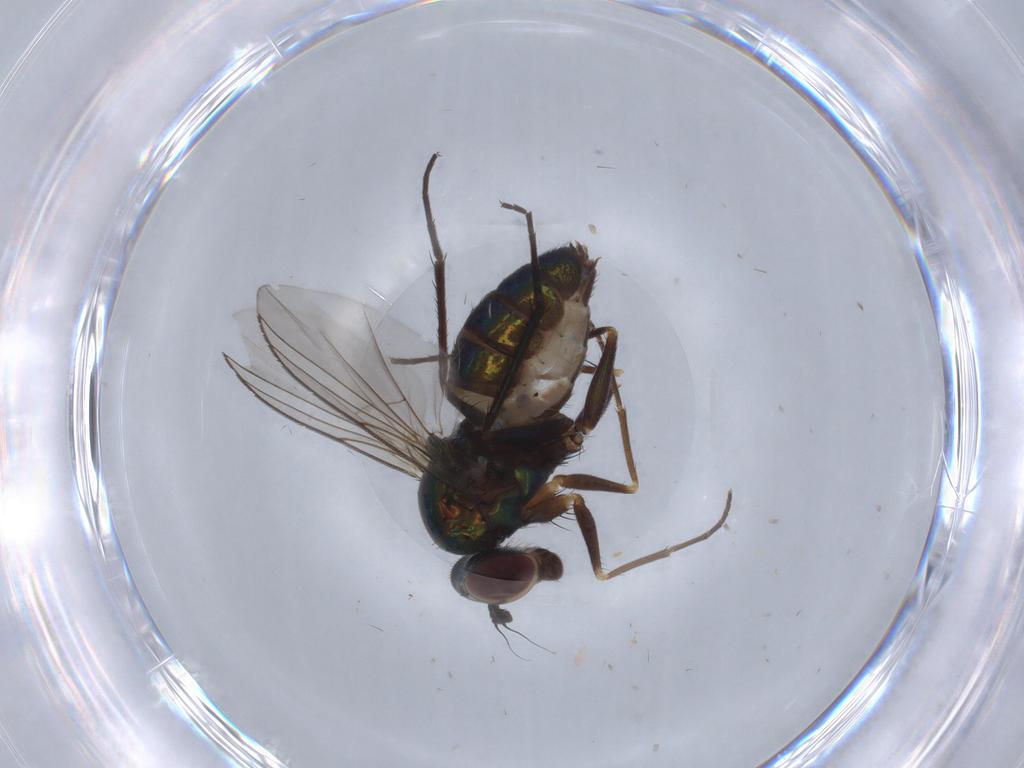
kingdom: Animalia
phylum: Arthropoda
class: Insecta
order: Diptera
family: Dolichopodidae
